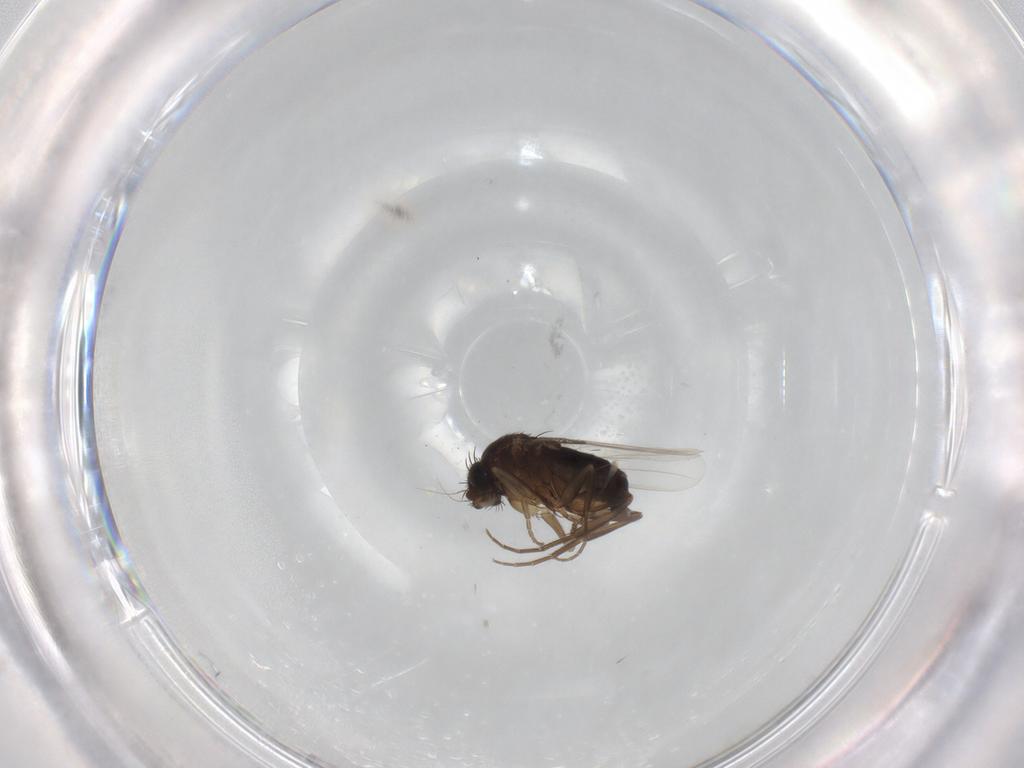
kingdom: Animalia
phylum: Arthropoda
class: Insecta
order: Diptera
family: Phoridae
